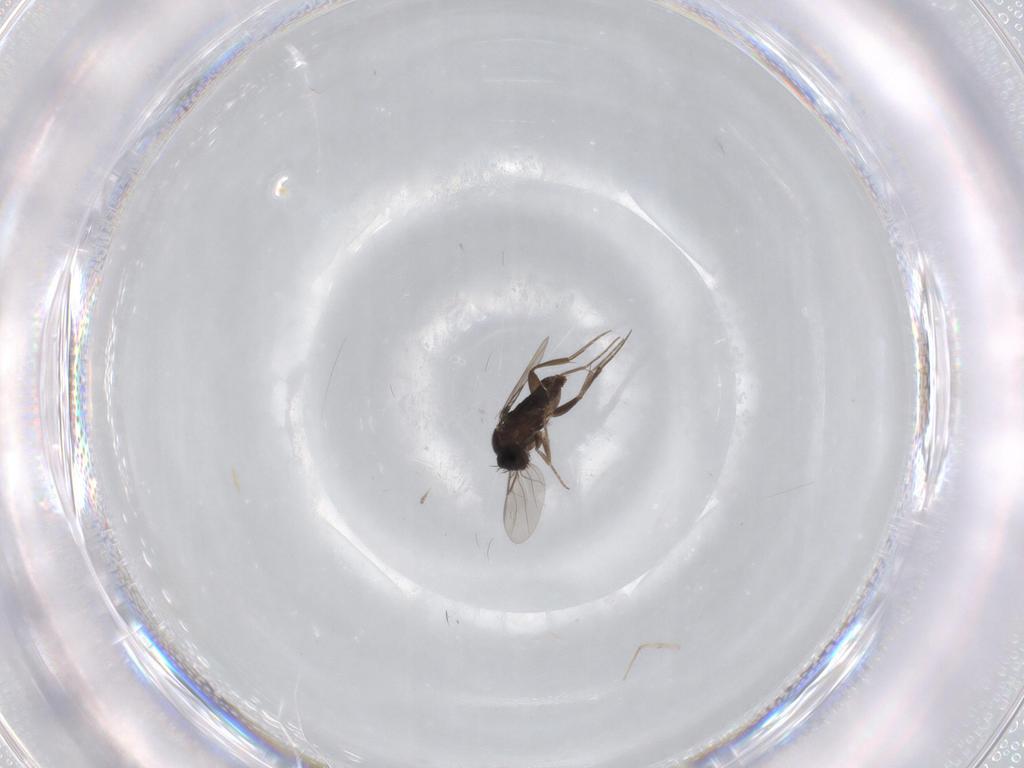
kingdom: Animalia
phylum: Arthropoda
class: Insecta
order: Diptera
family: Phoridae
